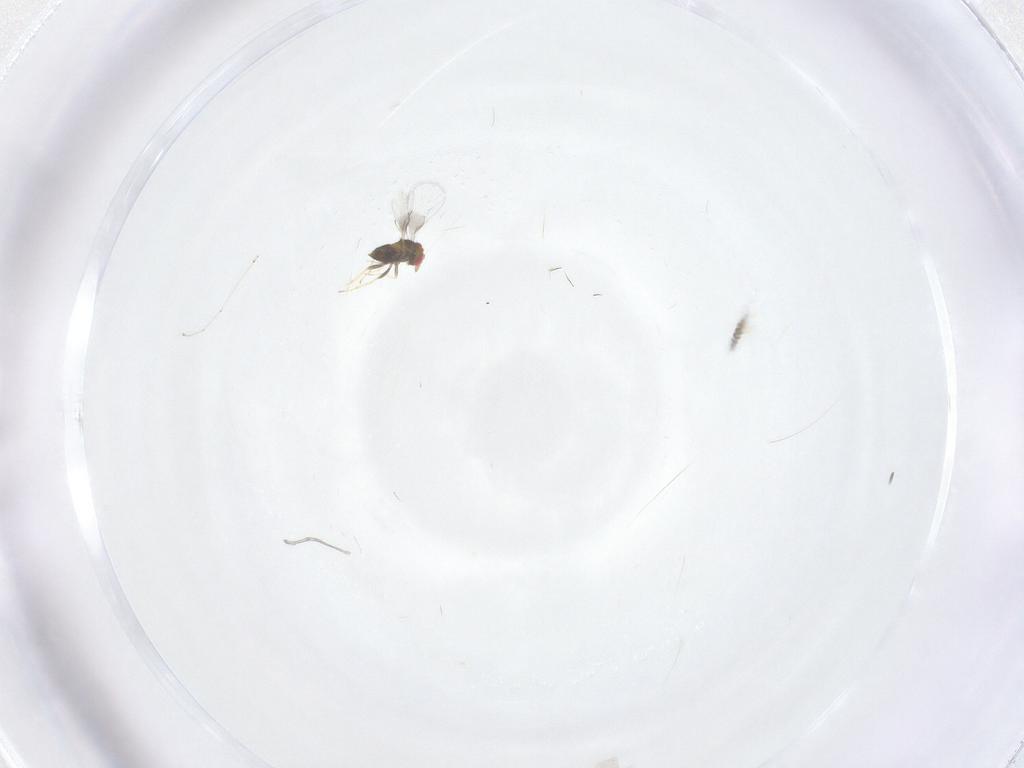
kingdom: Animalia
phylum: Arthropoda
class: Insecta
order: Hymenoptera
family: Trichogrammatidae
